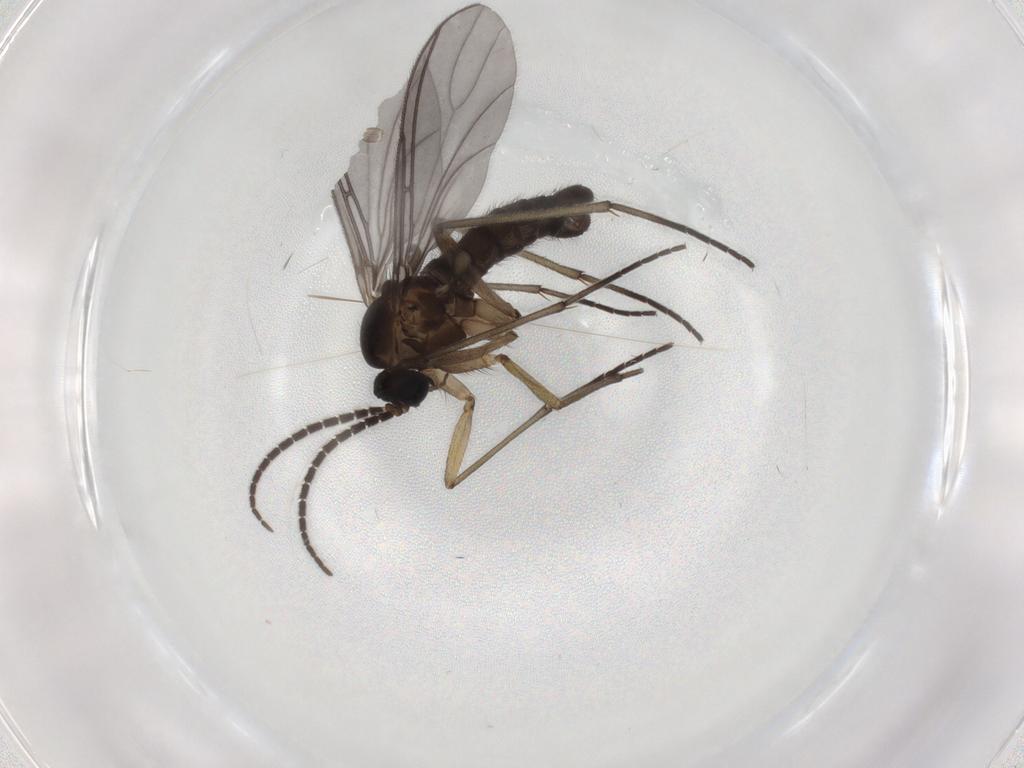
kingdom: Animalia
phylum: Arthropoda
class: Insecta
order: Diptera
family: Sciaridae
